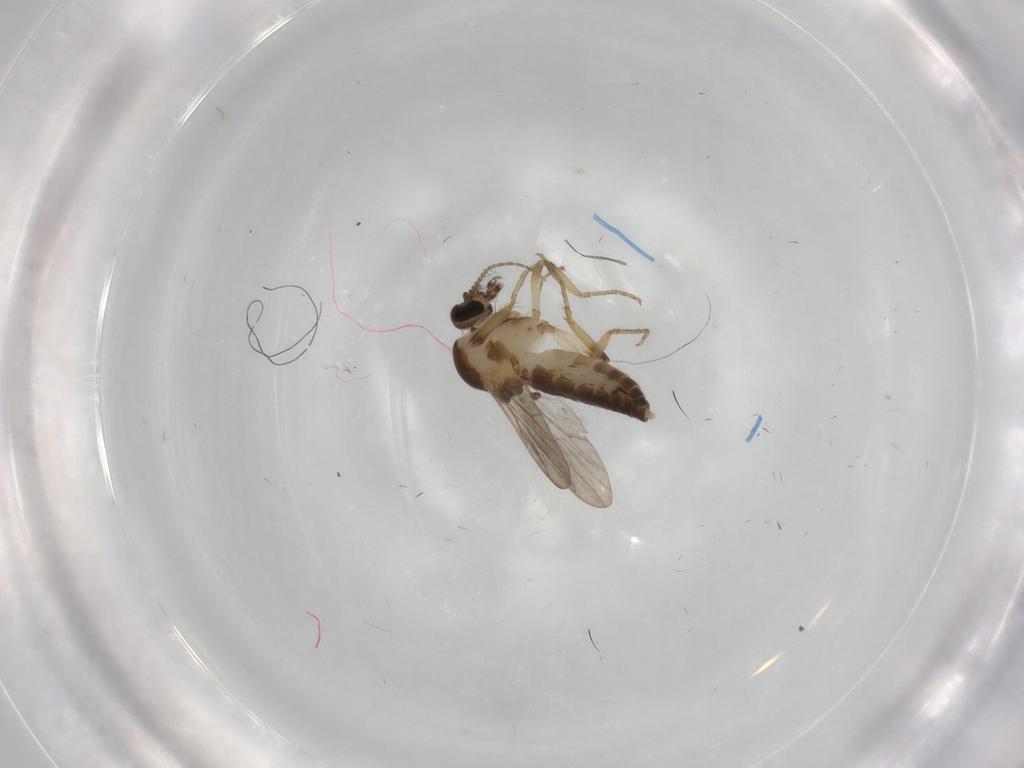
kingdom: Animalia
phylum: Arthropoda
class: Insecta
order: Diptera
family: Ceratopogonidae
